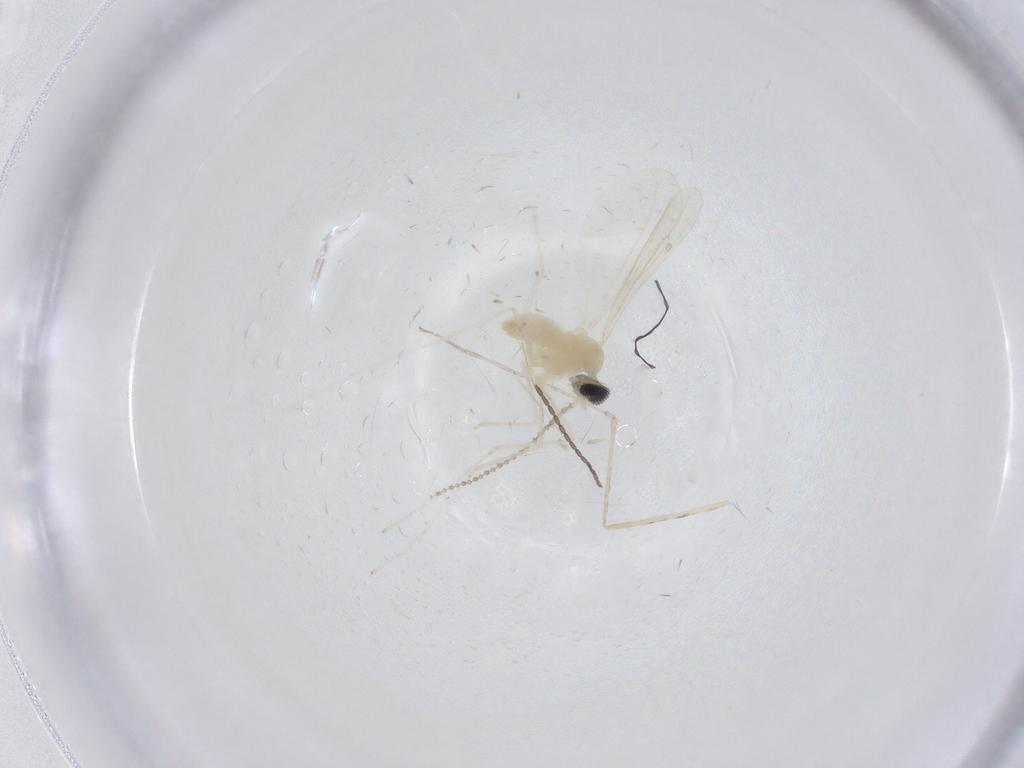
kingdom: Animalia
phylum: Arthropoda
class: Insecta
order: Diptera
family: Cecidomyiidae
